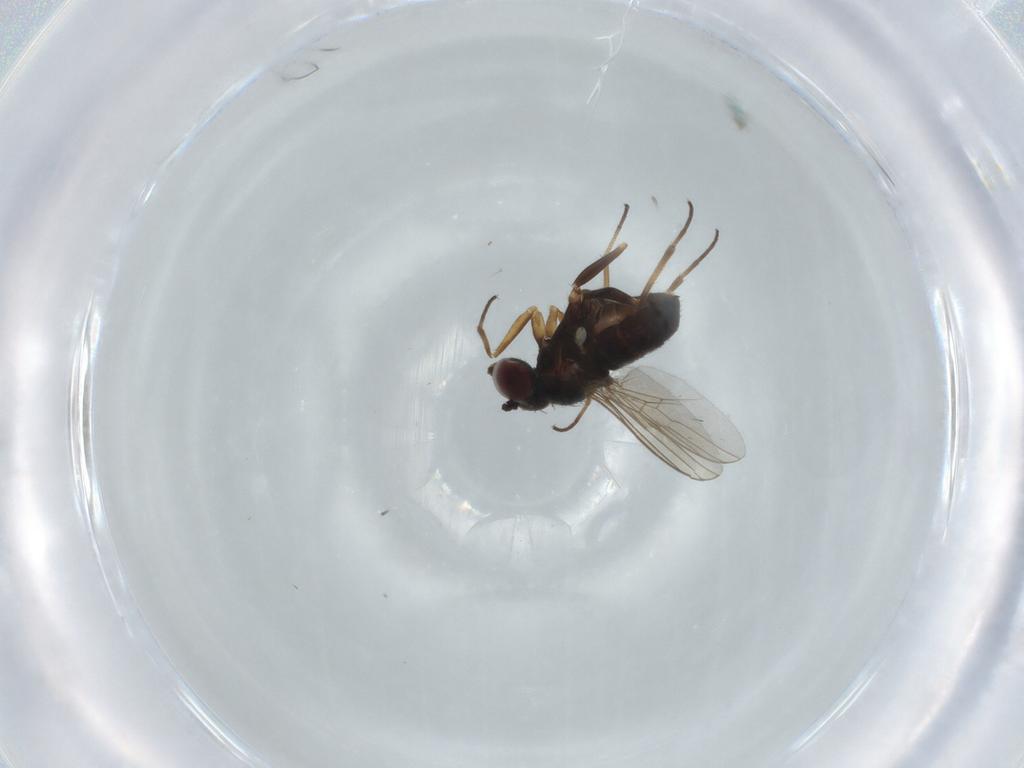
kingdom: Animalia
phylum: Arthropoda
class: Insecta
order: Diptera
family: Dolichopodidae
